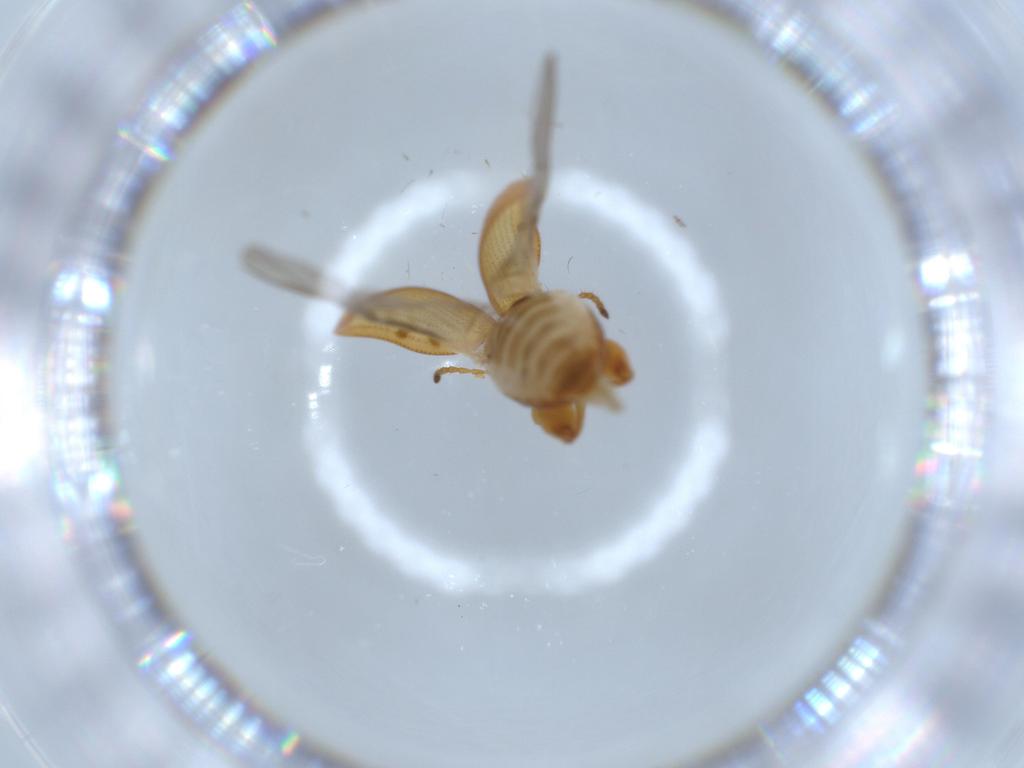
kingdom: Animalia
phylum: Arthropoda
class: Insecta
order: Coleoptera
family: Chrysomelidae
